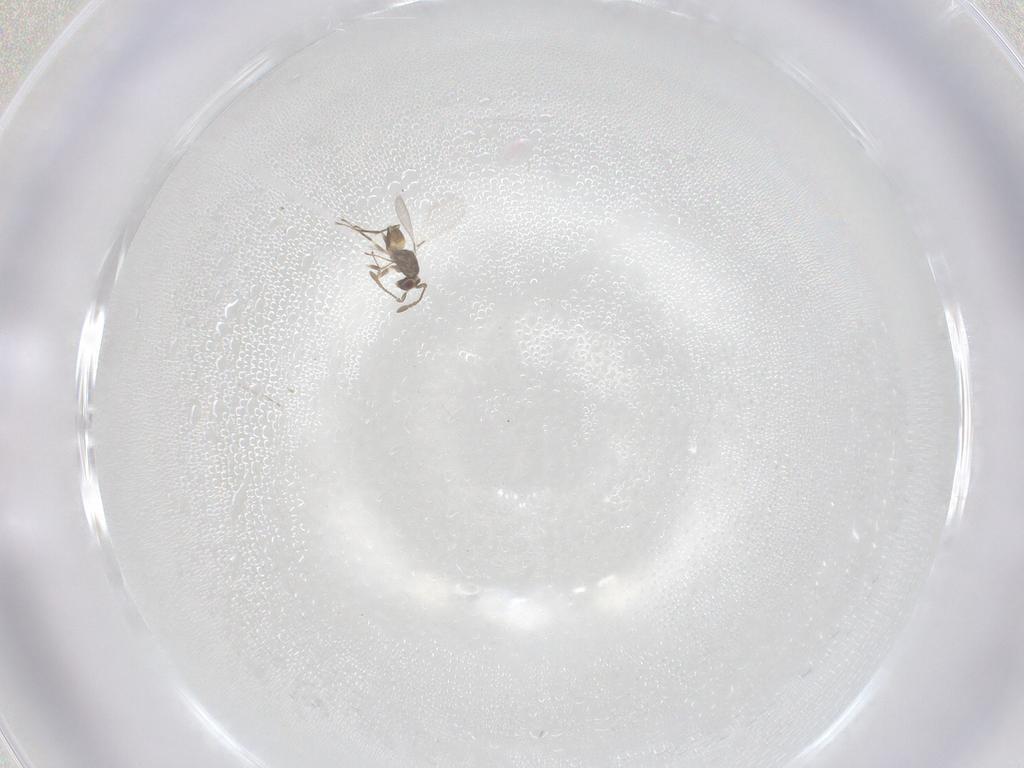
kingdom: Animalia
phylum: Arthropoda
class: Insecta
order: Hymenoptera
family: Mymaridae
